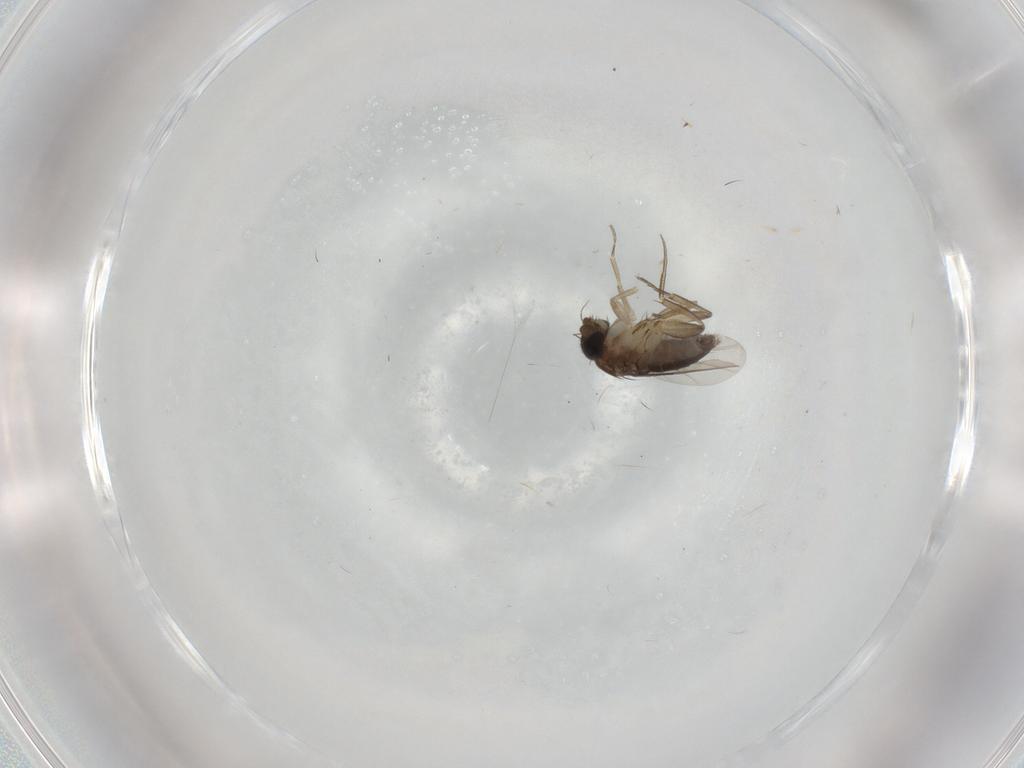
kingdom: Animalia
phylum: Arthropoda
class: Insecta
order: Diptera
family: Phoridae
